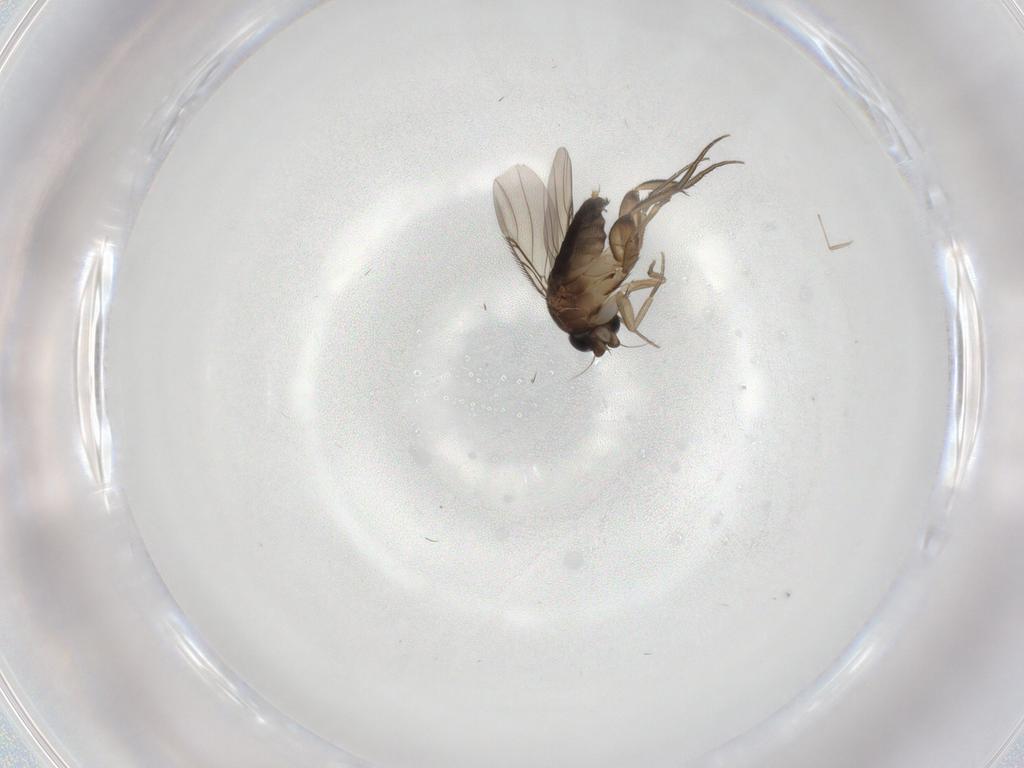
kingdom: Animalia
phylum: Arthropoda
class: Insecta
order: Diptera
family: Phoridae
